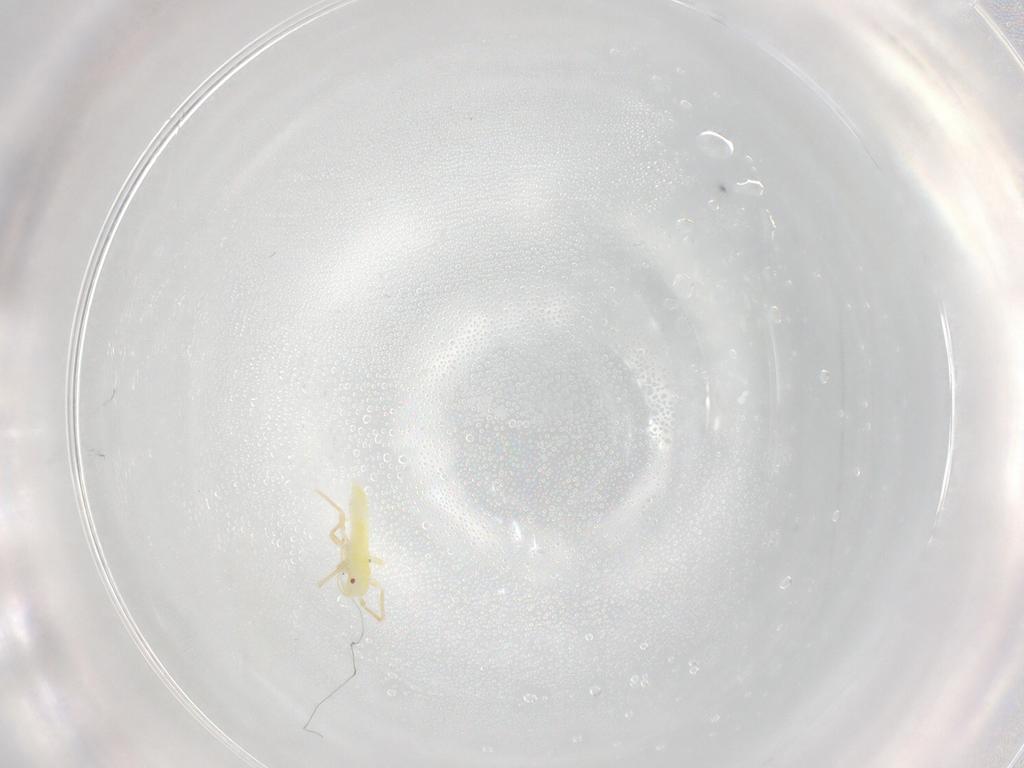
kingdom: Animalia
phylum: Arthropoda
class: Insecta
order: Hemiptera
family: Miridae
